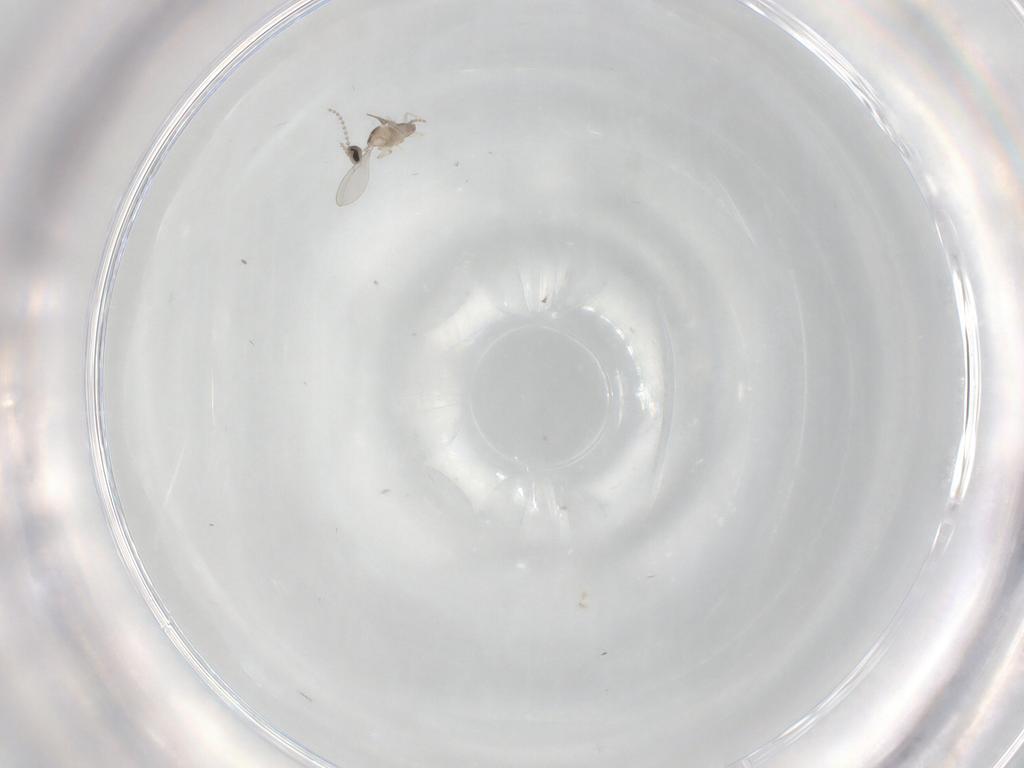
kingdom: Animalia
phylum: Arthropoda
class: Insecta
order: Diptera
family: Cecidomyiidae
